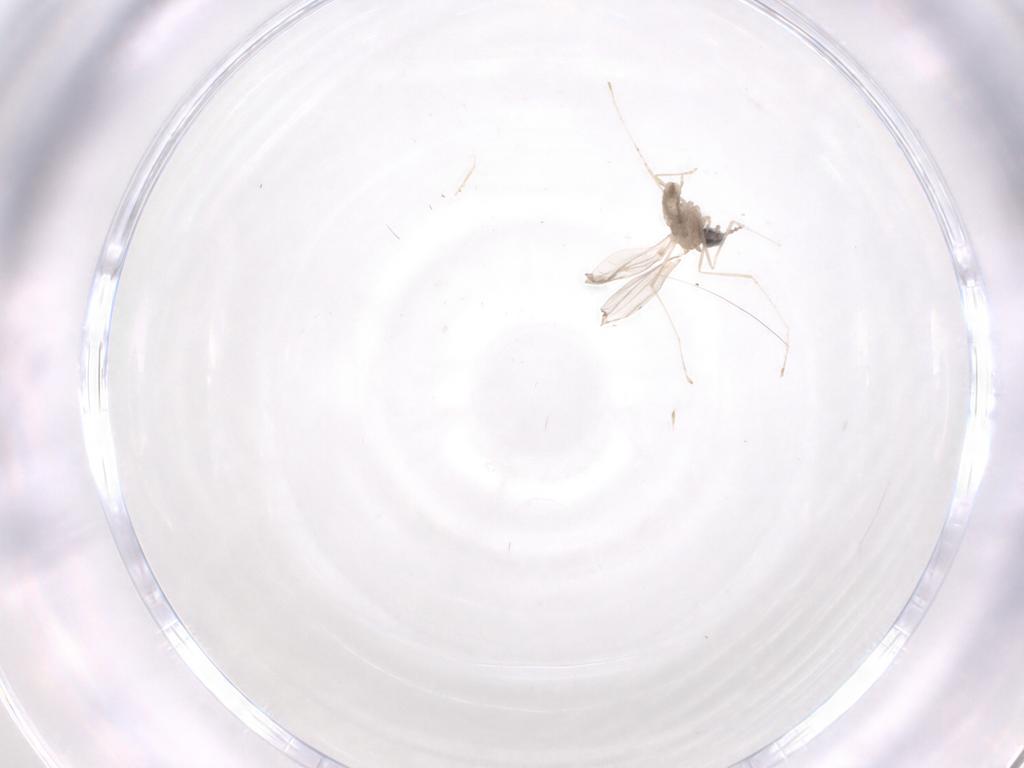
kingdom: Animalia
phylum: Arthropoda
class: Insecta
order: Diptera
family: Cecidomyiidae
